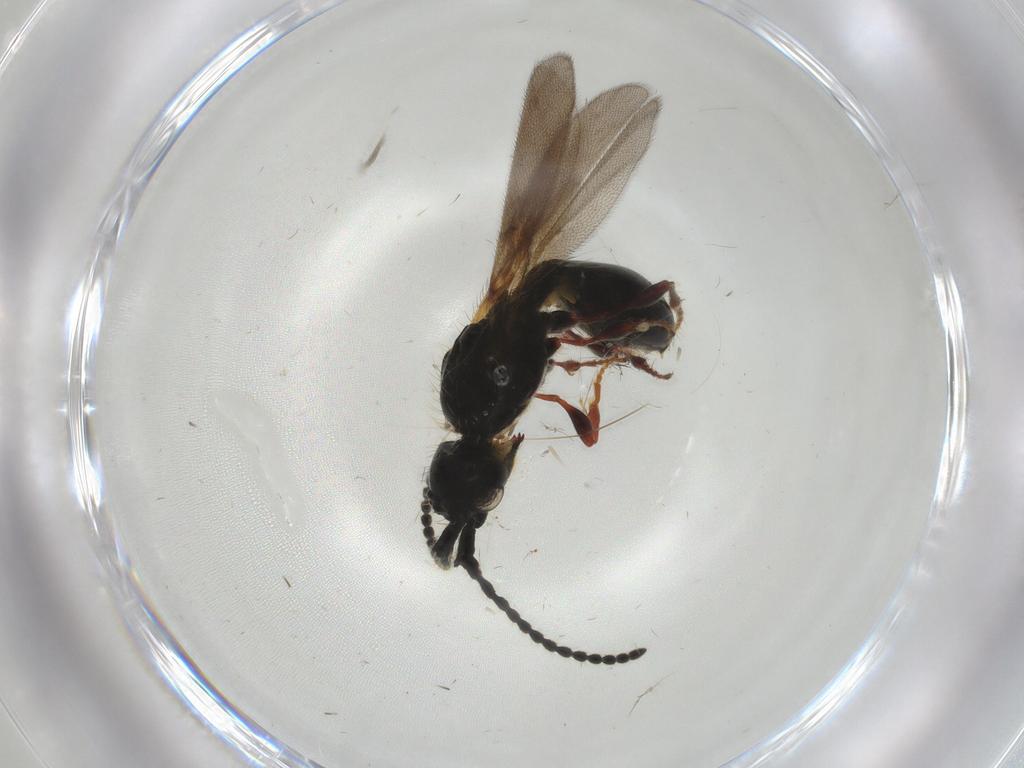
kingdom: Animalia
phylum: Arthropoda
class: Insecta
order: Hymenoptera
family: Diapriidae
